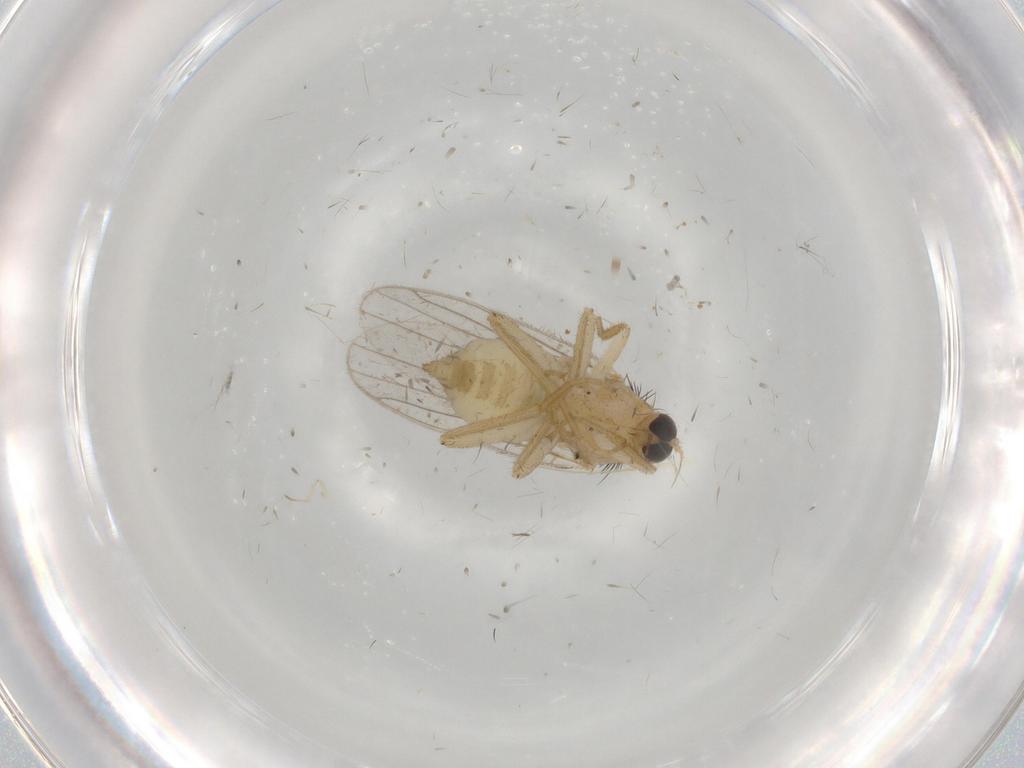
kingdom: Animalia
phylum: Arthropoda
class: Insecta
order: Diptera
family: Hybotidae
